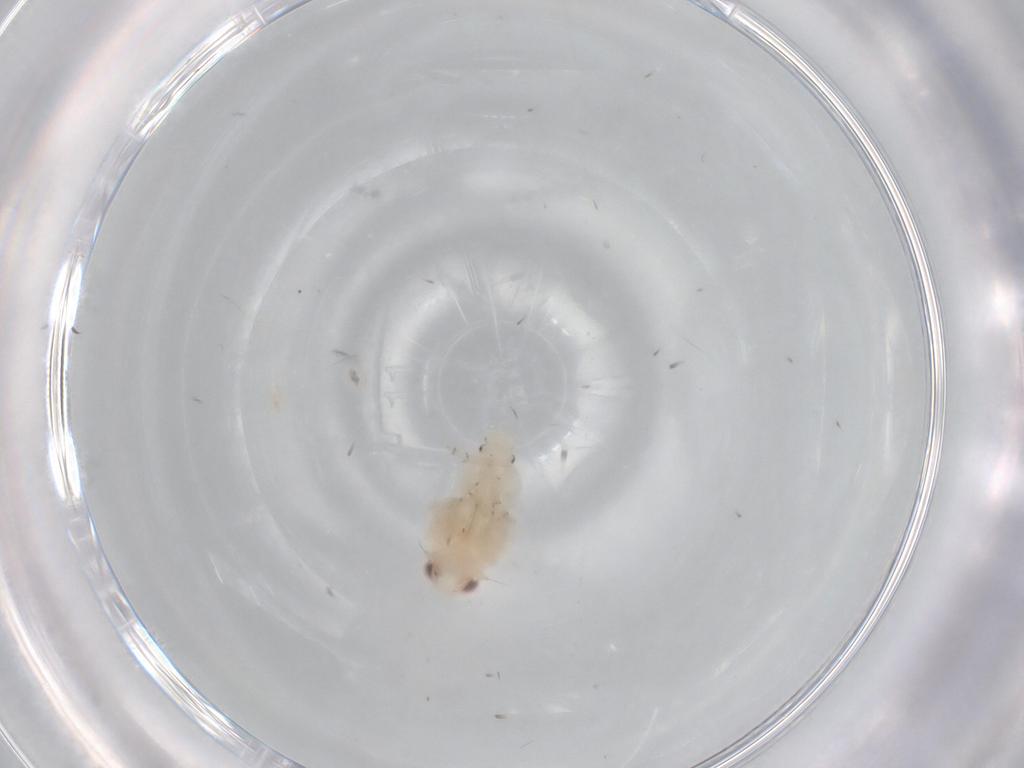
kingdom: Animalia
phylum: Arthropoda
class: Insecta
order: Hemiptera
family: Nogodinidae
